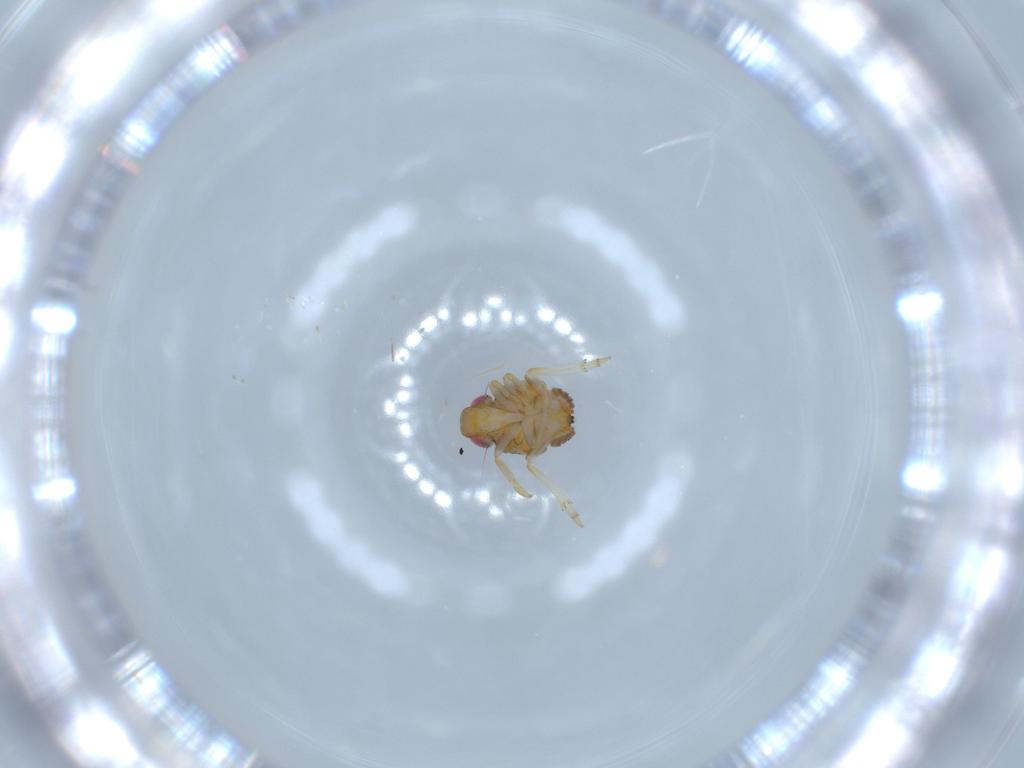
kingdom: Animalia
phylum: Arthropoda
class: Insecta
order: Hemiptera
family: Issidae
